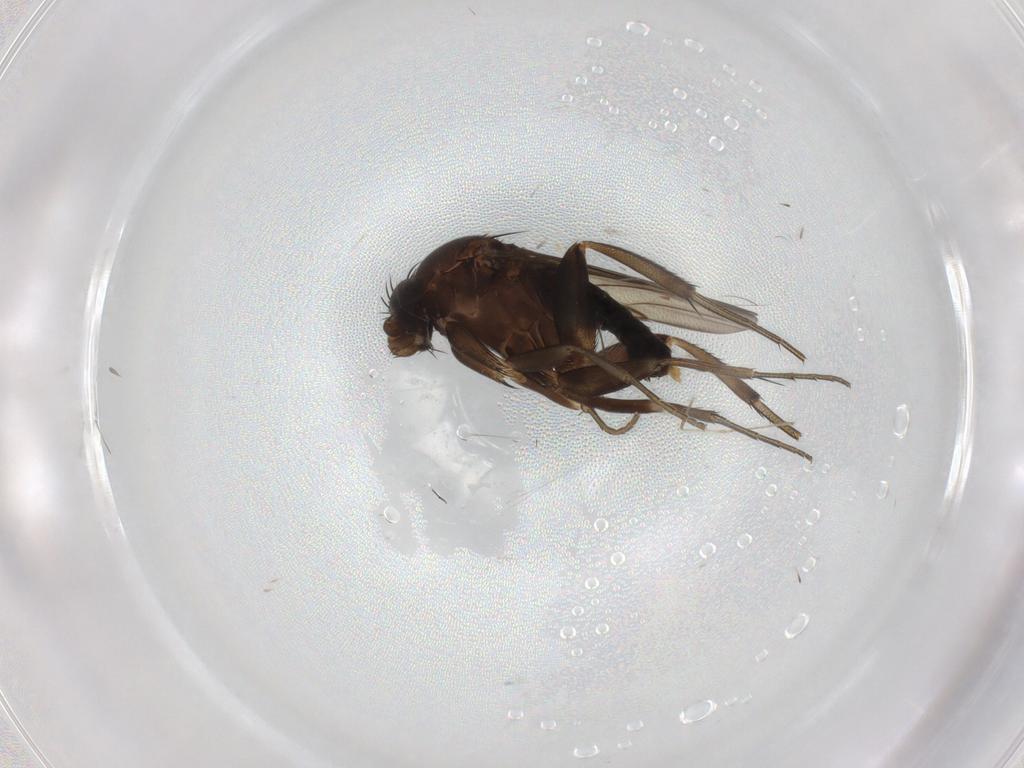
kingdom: Animalia
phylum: Arthropoda
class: Insecta
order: Diptera
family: Phoridae
